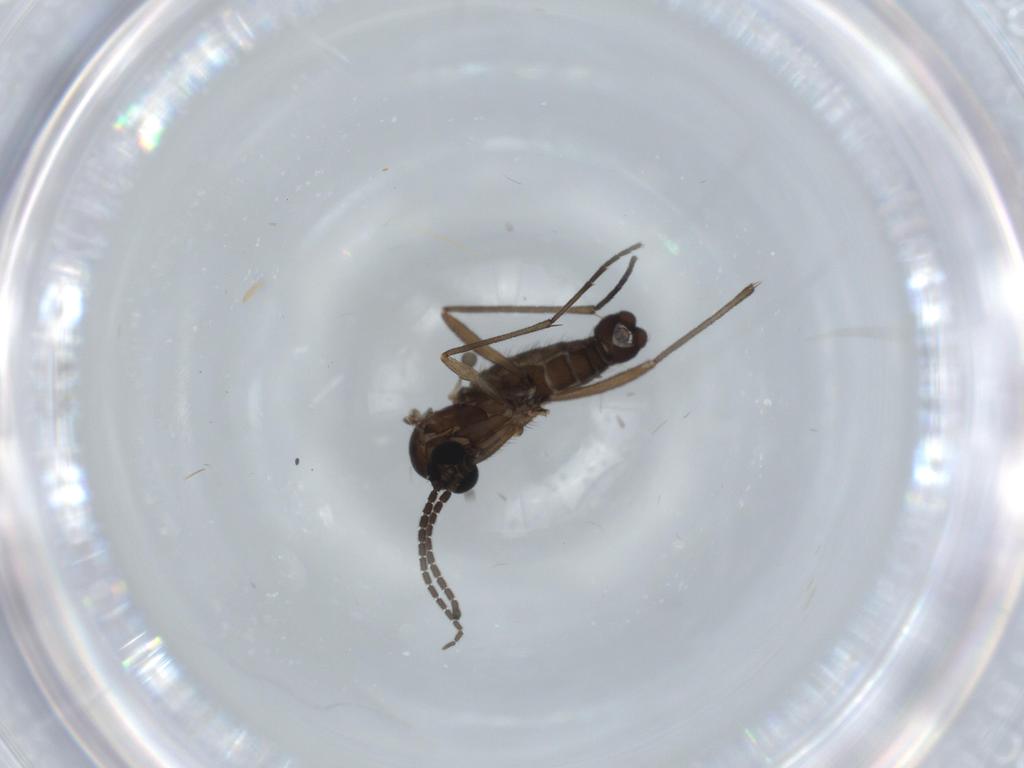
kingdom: Animalia
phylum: Arthropoda
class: Insecta
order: Diptera
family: Sciaridae
